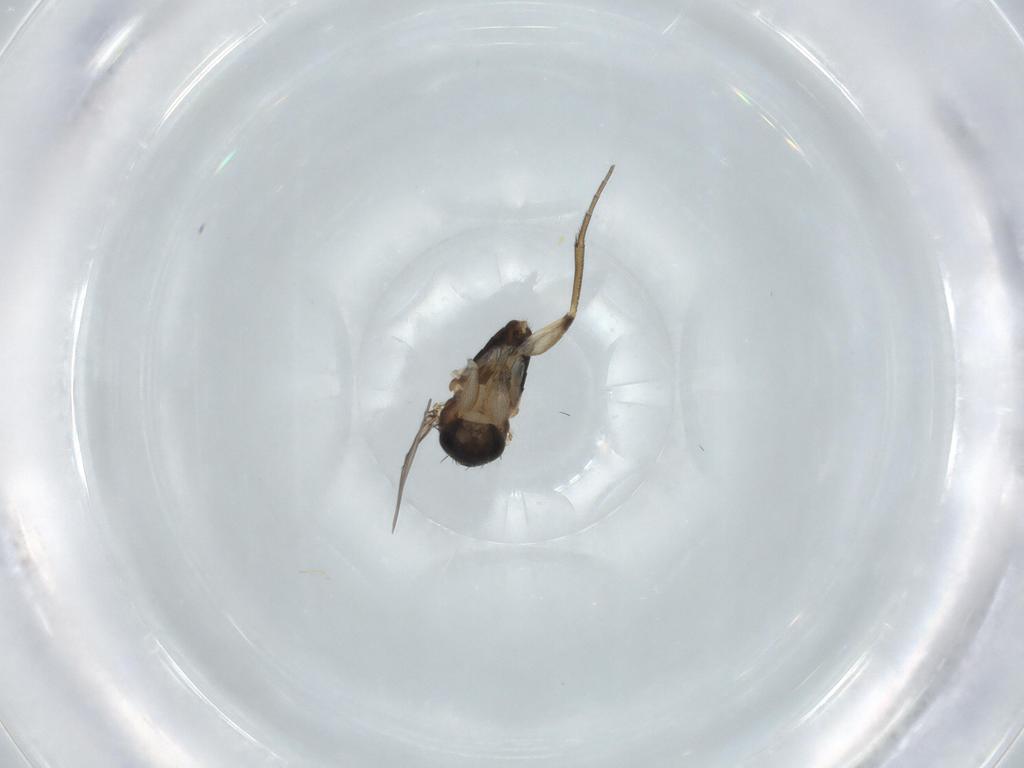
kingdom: Animalia
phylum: Arthropoda
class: Insecta
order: Diptera
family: Phoridae
